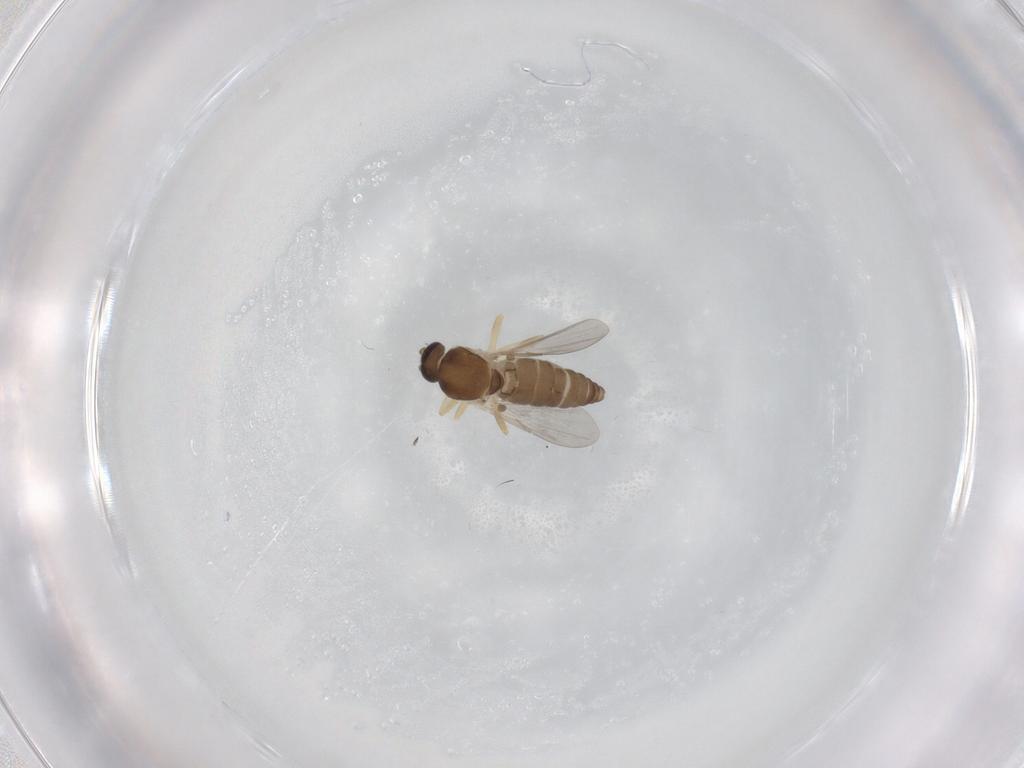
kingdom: Animalia
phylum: Arthropoda
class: Insecta
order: Diptera
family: Ceratopogonidae
